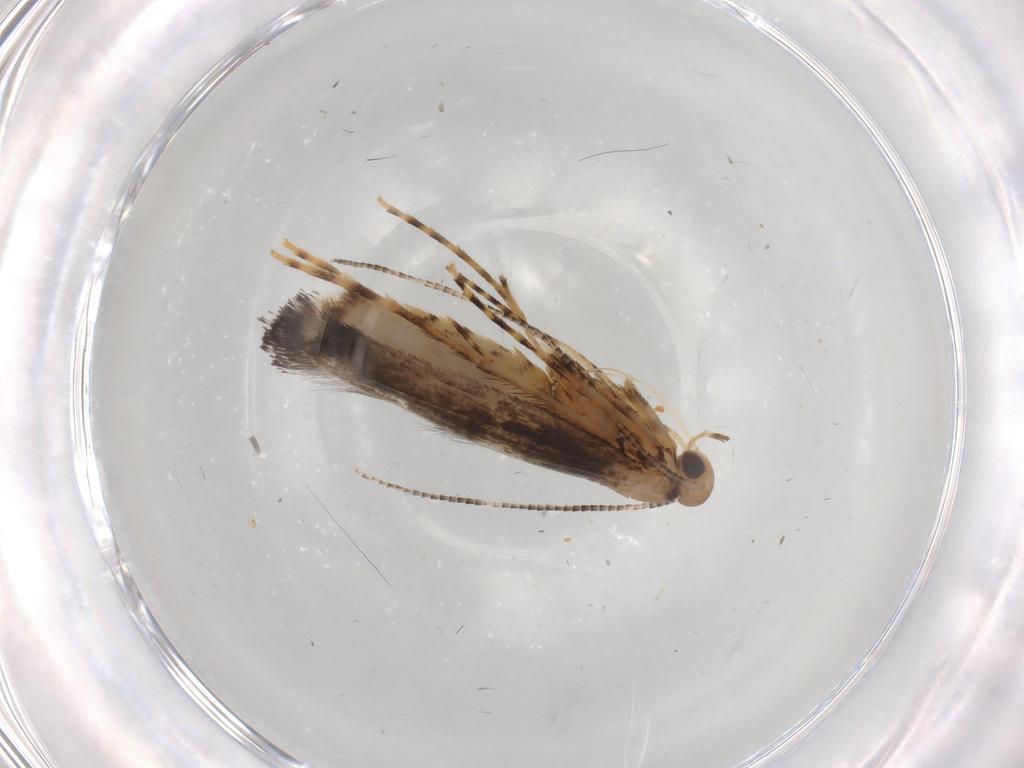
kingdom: Animalia
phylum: Arthropoda
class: Insecta
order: Lepidoptera
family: Gracillariidae
